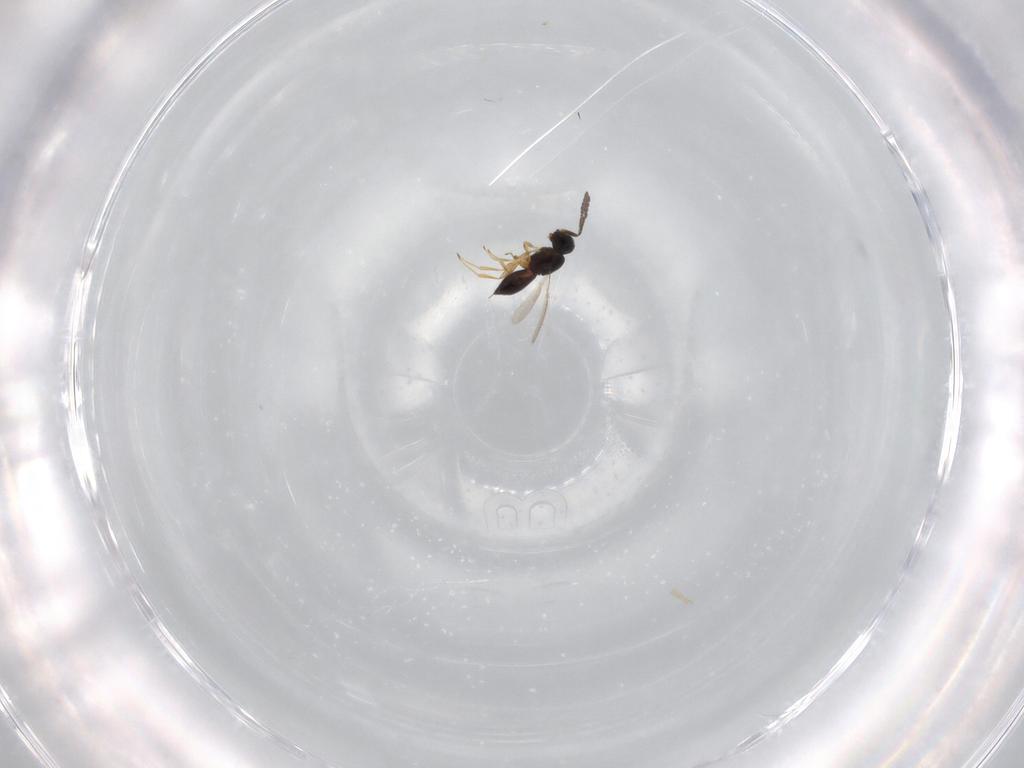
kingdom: Animalia
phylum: Arthropoda
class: Insecta
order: Hymenoptera
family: Scelionidae
